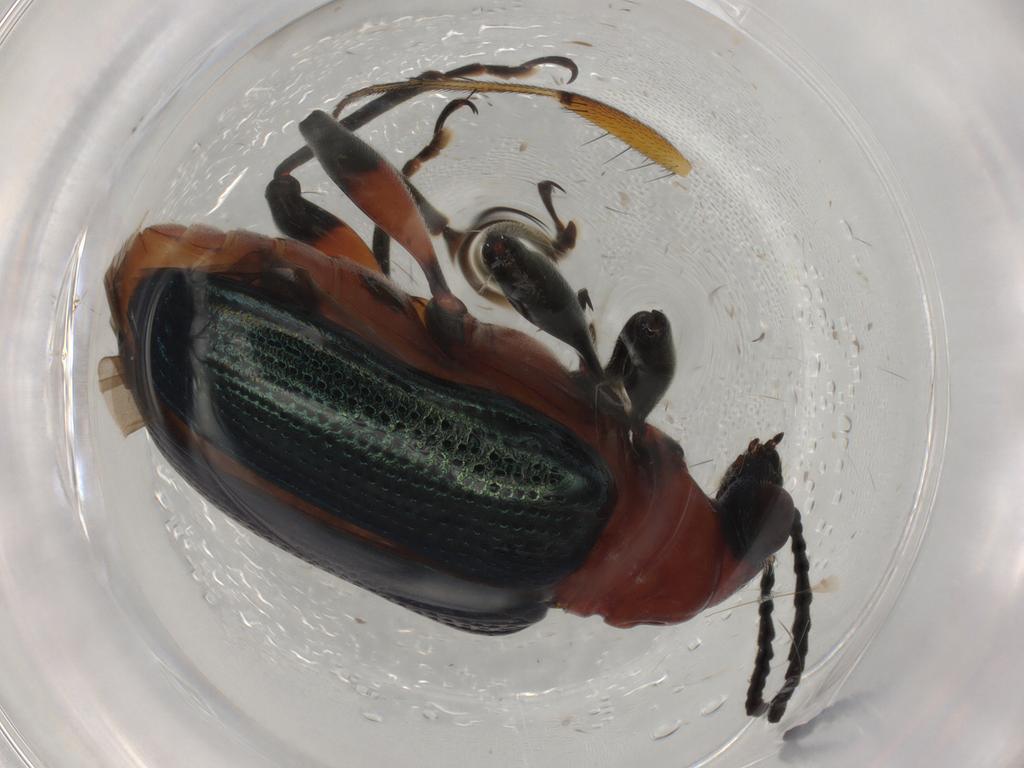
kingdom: Animalia
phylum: Arthropoda
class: Insecta
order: Coleoptera
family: Chrysomelidae
